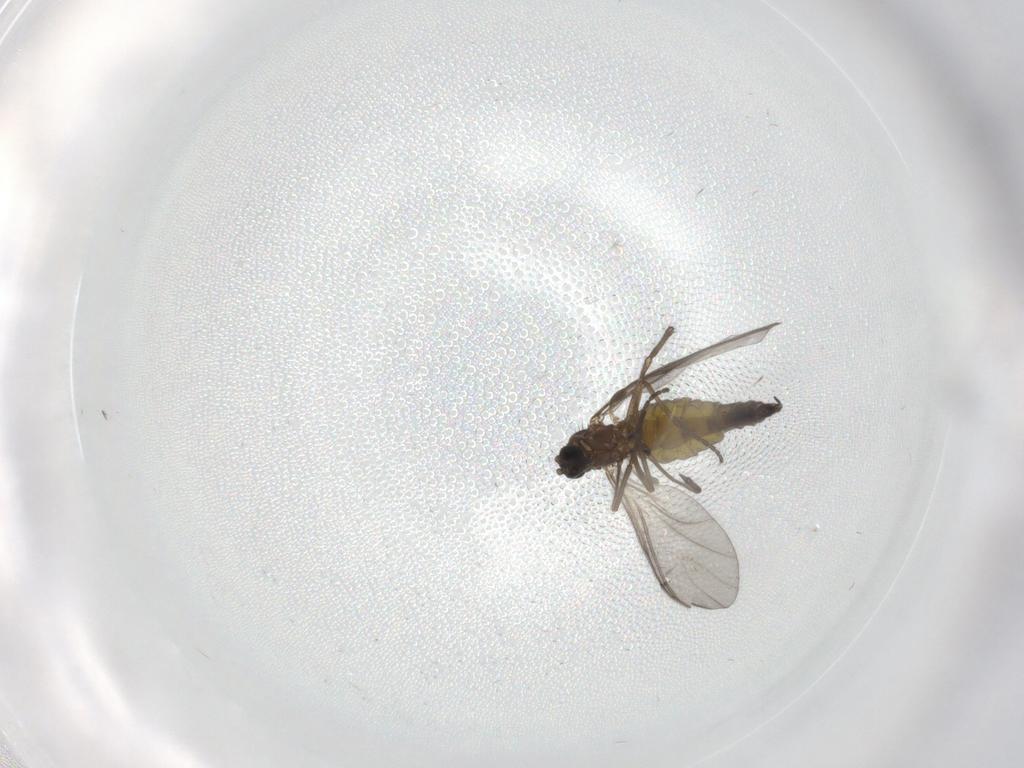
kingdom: Animalia
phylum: Arthropoda
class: Insecta
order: Diptera
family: Sciaridae
